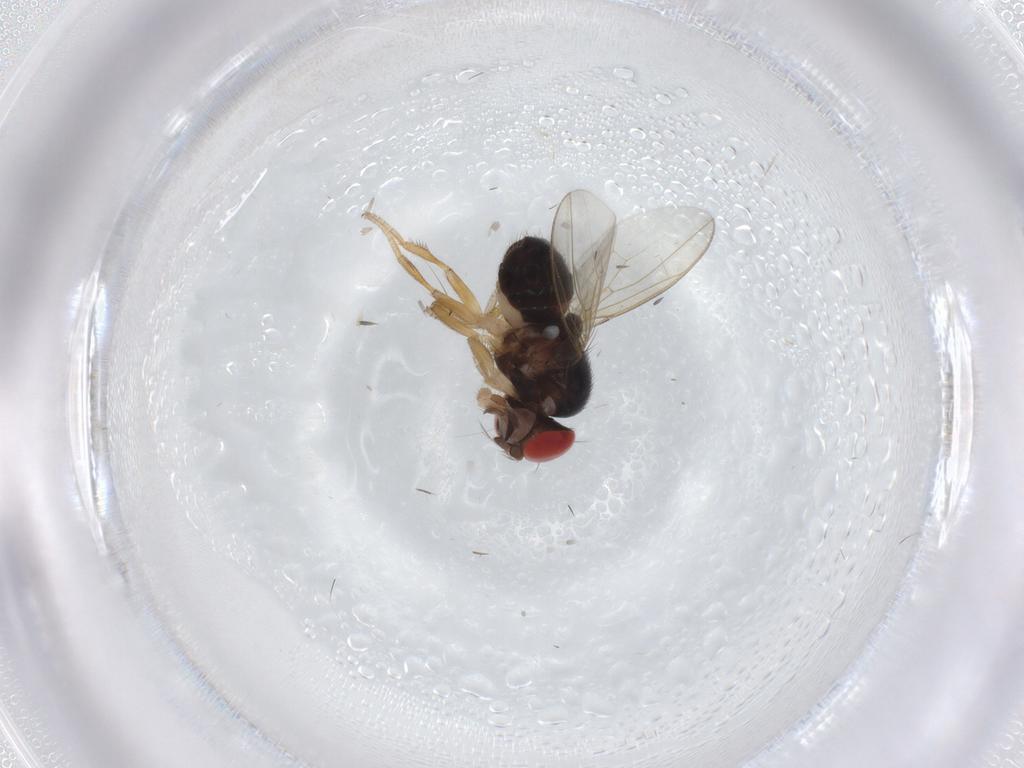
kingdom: Animalia
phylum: Arthropoda
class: Insecta
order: Diptera
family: Drosophilidae
